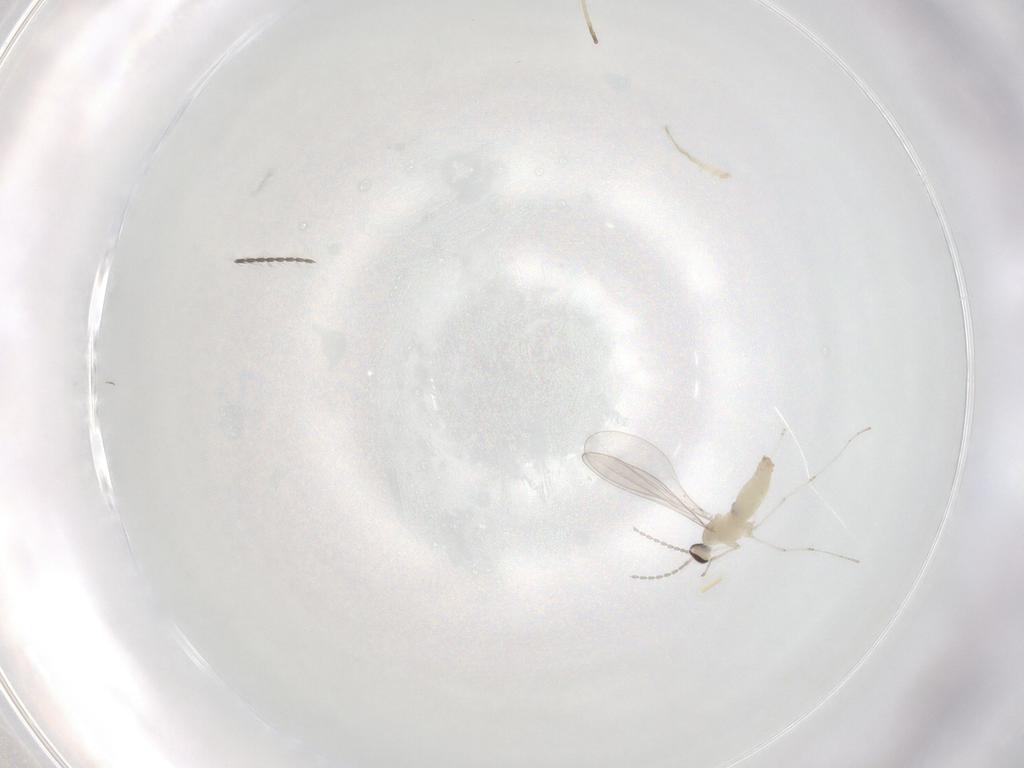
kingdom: Animalia
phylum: Arthropoda
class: Insecta
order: Diptera
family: Cecidomyiidae
